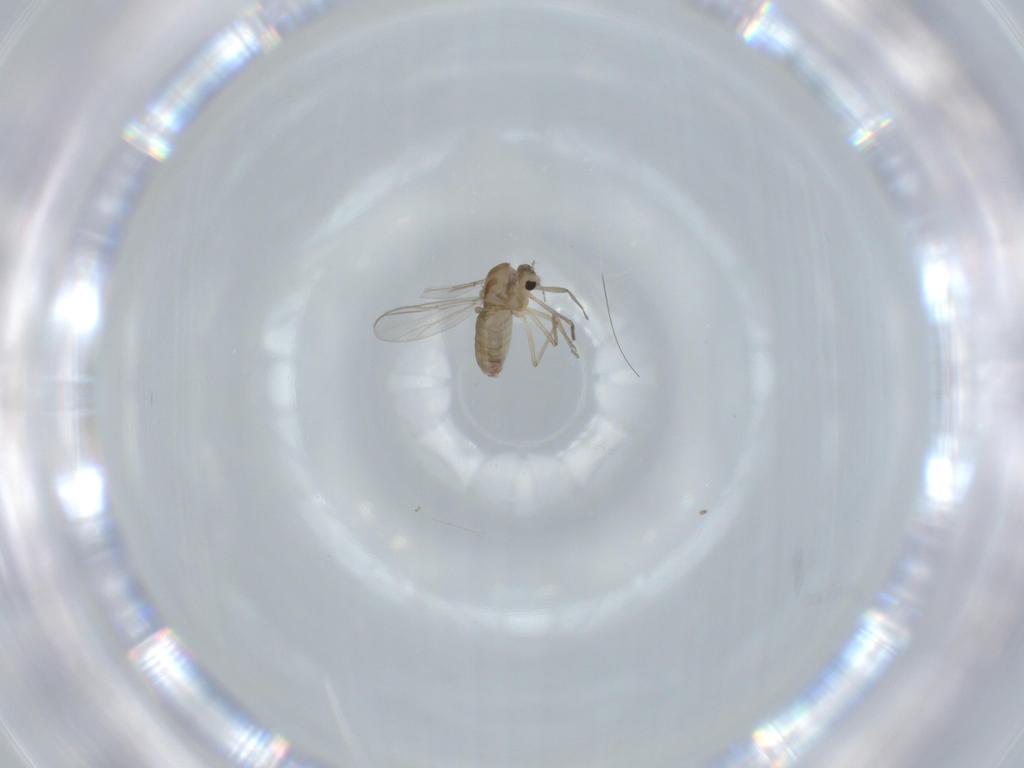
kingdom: Animalia
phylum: Arthropoda
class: Insecta
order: Diptera
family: Chironomidae
